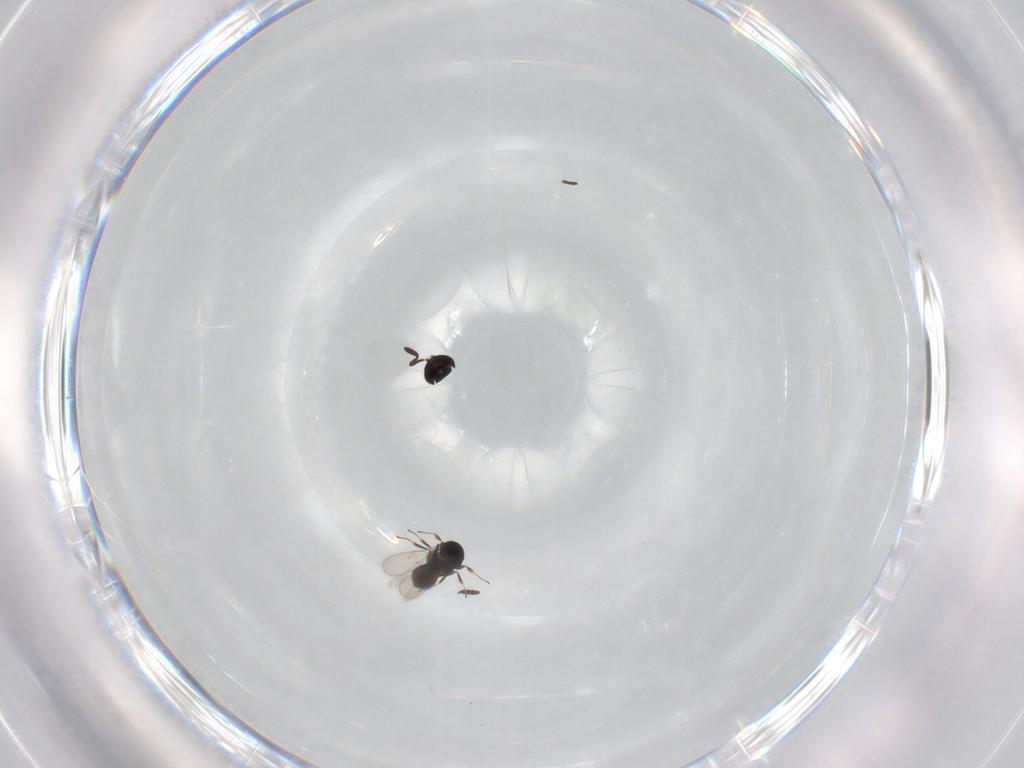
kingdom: Animalia
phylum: Arthropoda
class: Insecta
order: Hymenoptera
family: Scelionidae
